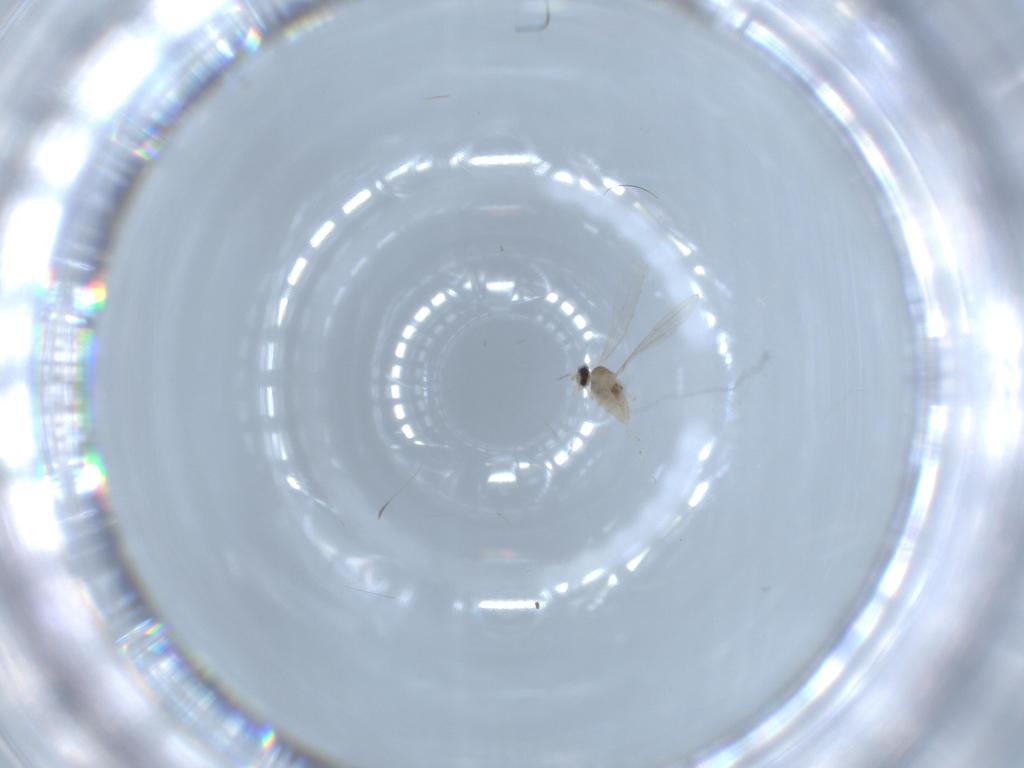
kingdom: Animalia
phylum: Arthropoda
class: Insecta
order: Diptera
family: Cecidomyiidae
